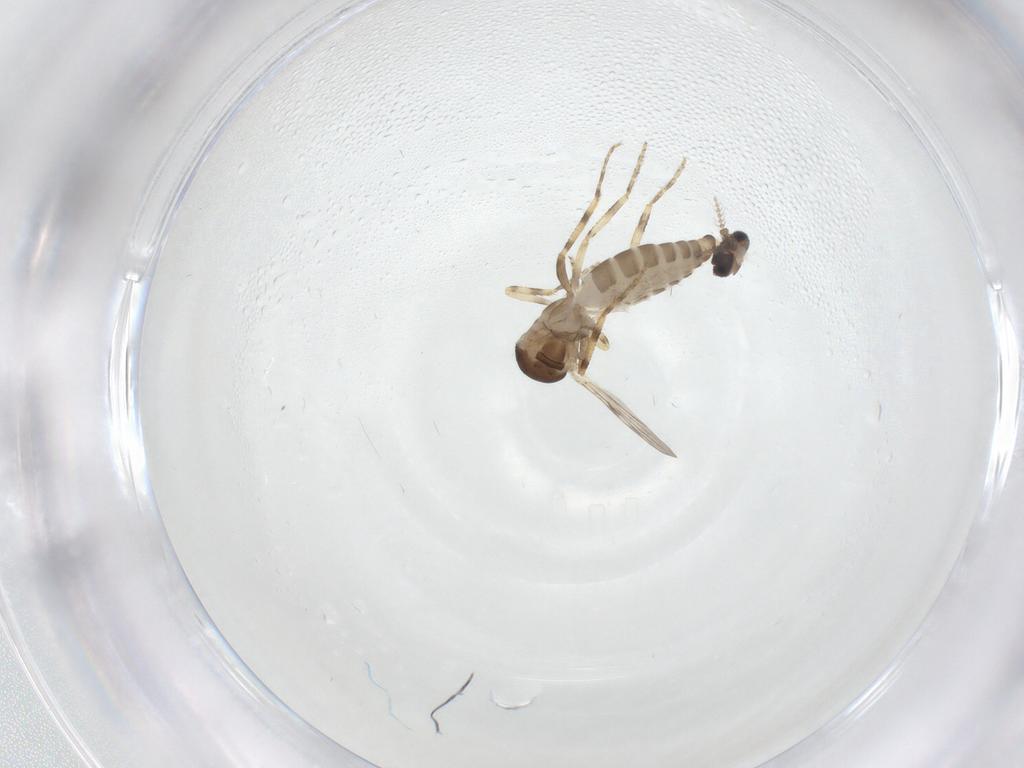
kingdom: Animalia
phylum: Arthropoda
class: Insecta
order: Diptera
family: Ceratopogonidae
